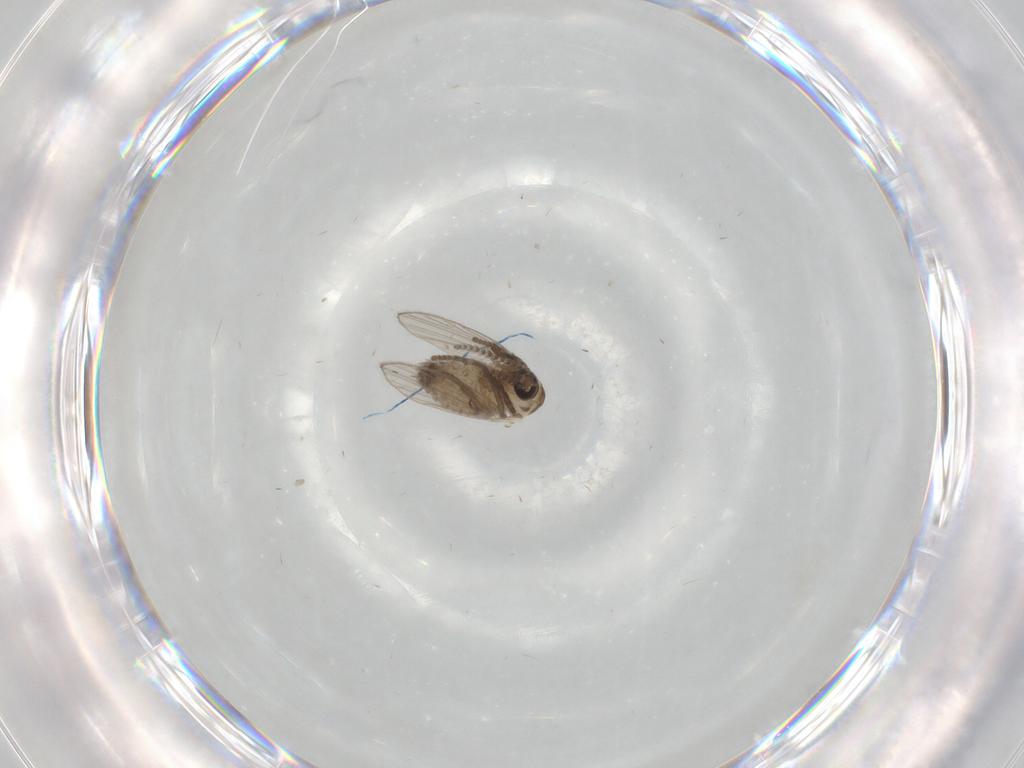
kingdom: Animalia
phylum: Arthropoda
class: Insecta
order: Diptera
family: Psychodidae
